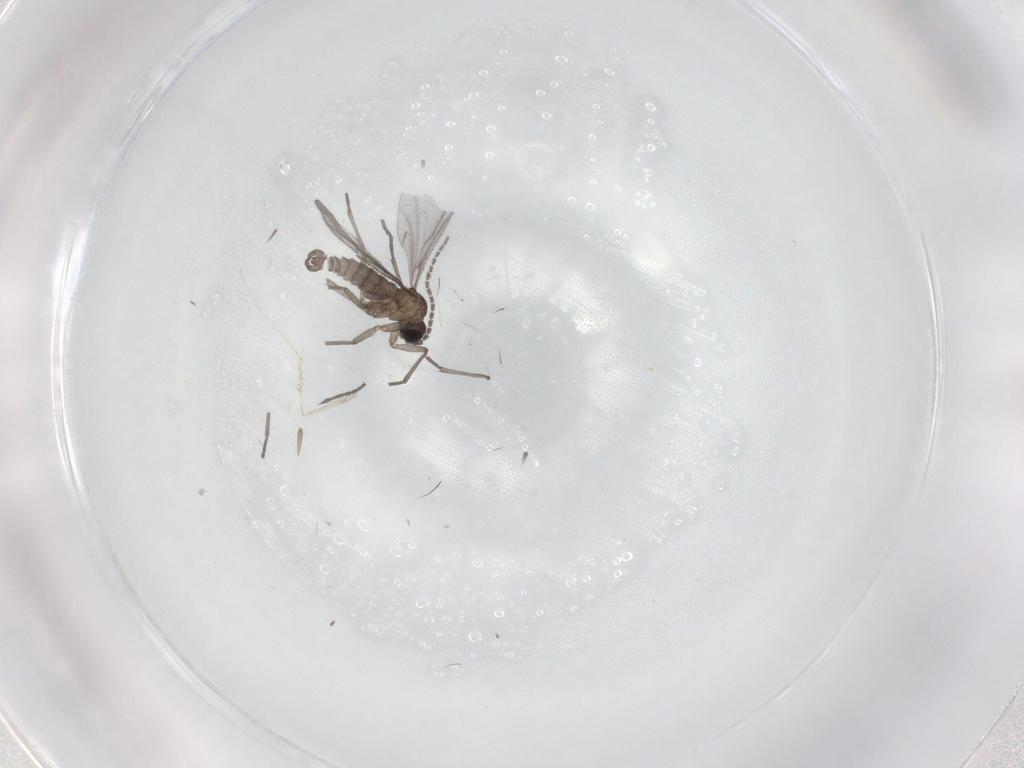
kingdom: Animalia
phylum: Arthropoda
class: Insecta
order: Diptera
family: Sciaridae
